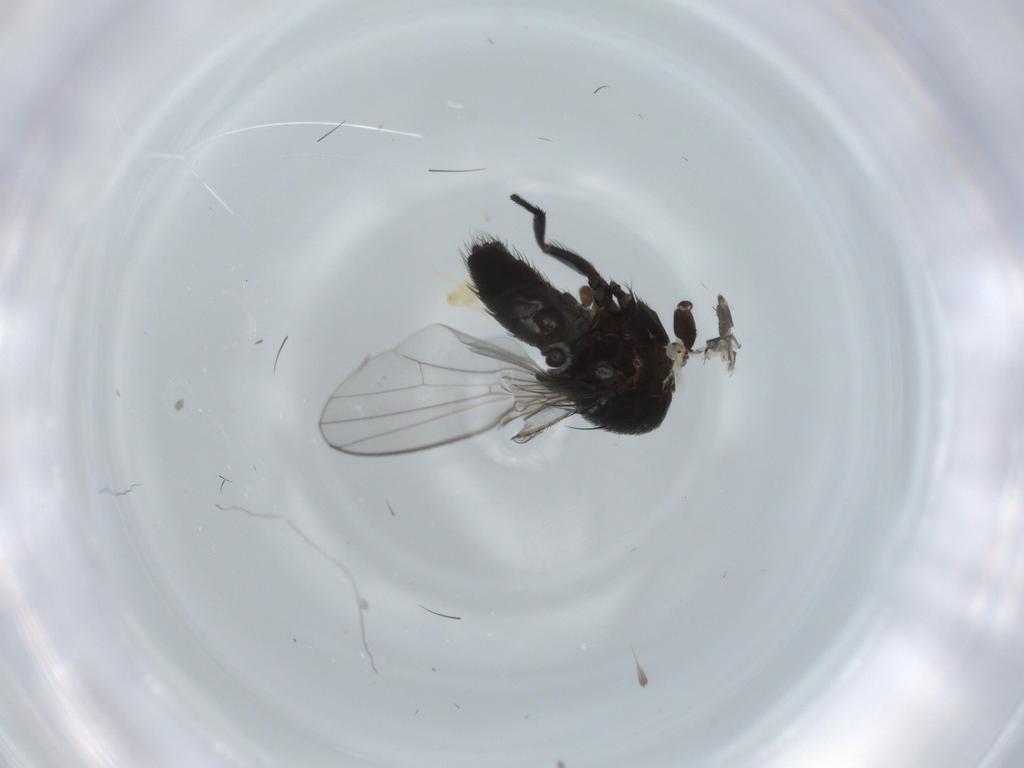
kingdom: Animalia
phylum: Arthropoda
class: Insecta
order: Diptera
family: Milichiidae
